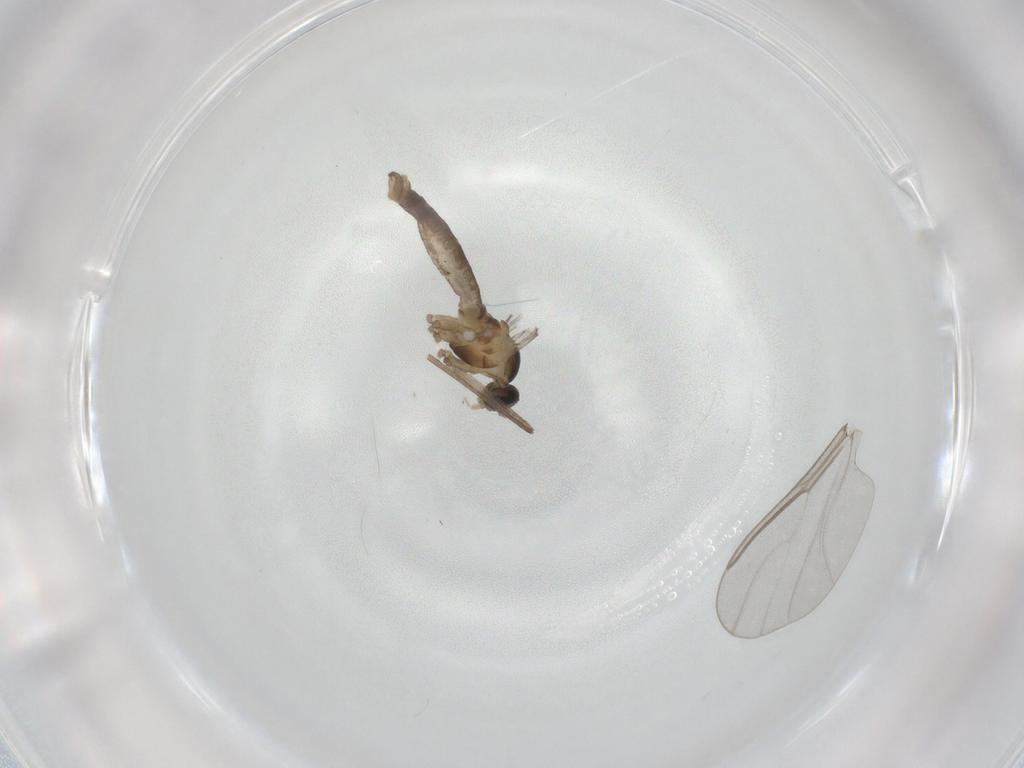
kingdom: Animalia
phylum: Arthropoda
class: Insecta
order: Diptera
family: Cecidomyiidae
